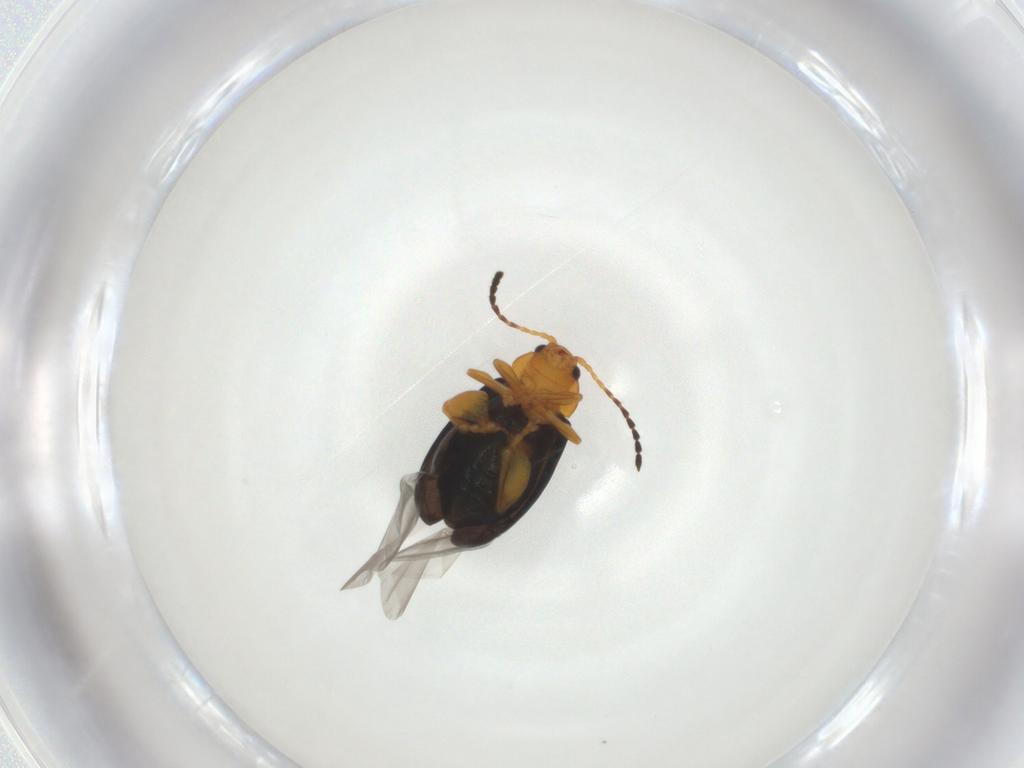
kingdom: Animalia
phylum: Arthropoda
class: Insecta
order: Coleoptera
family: Chrysomelidae
